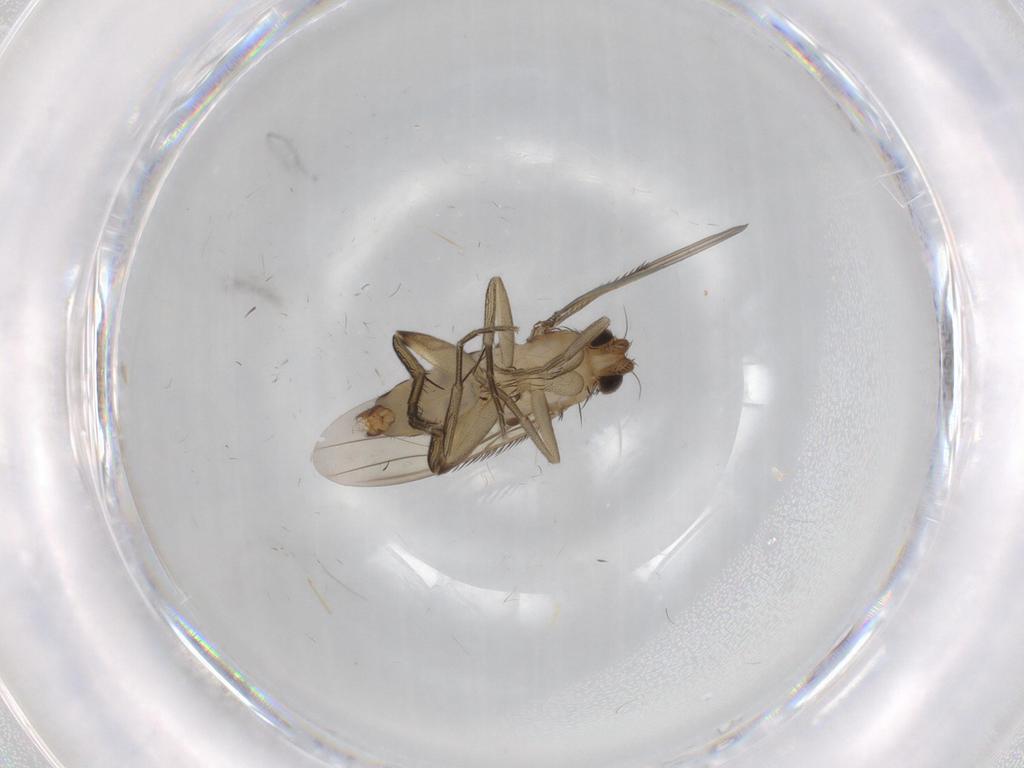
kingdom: Animalia
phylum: Arthropoda
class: Insecta
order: Diptera
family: Phoridae
